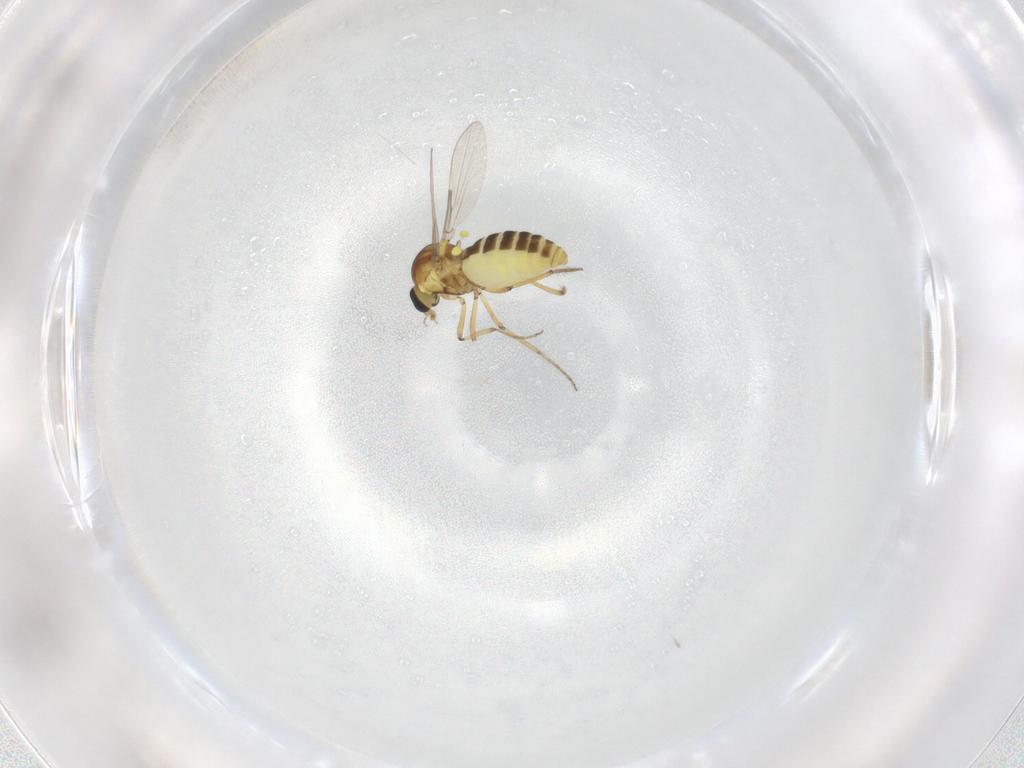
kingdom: Animalia
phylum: Arthropoda
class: Insecta
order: Diptera
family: Ceratopogonidae
